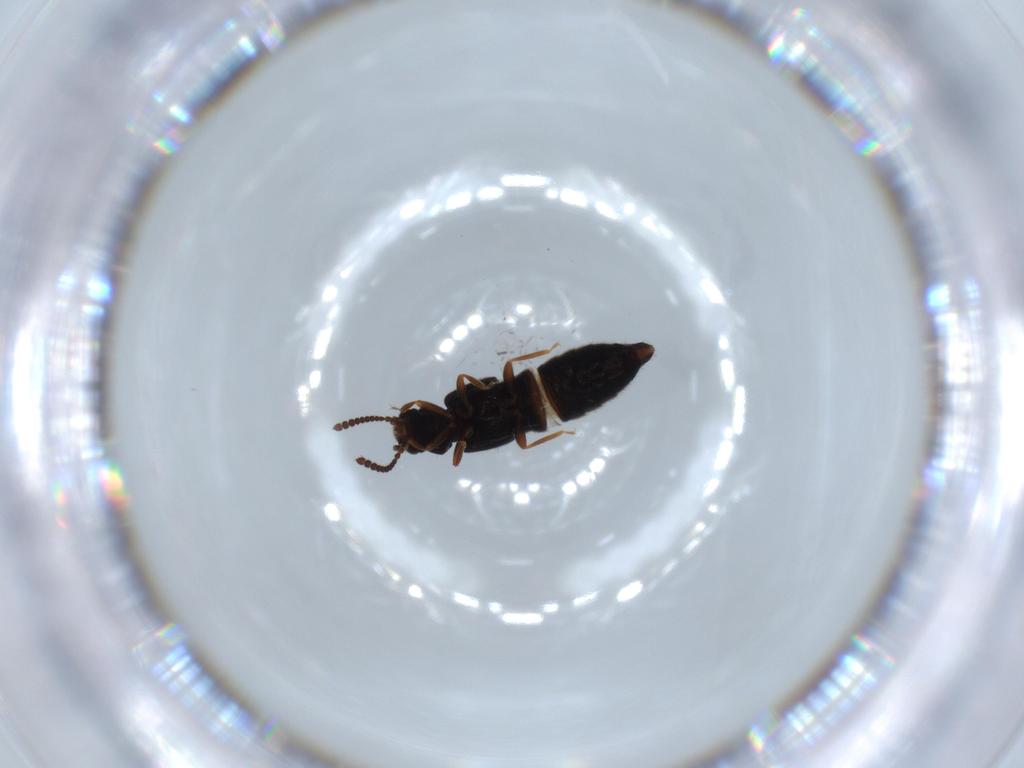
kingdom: Animalia
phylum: Arthropoda
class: Insecta
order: Coleoptera
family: Staphylinidae
